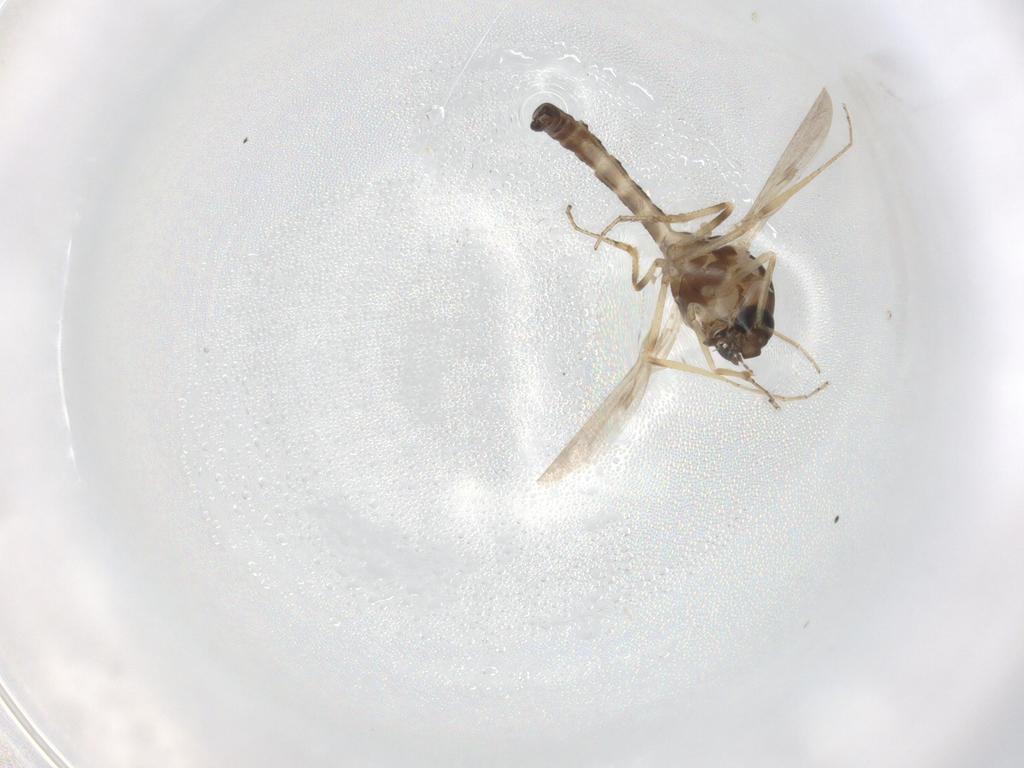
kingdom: Animalia
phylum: Arthropoda
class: Insecta
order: Diptera
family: Ceratopogonidae
